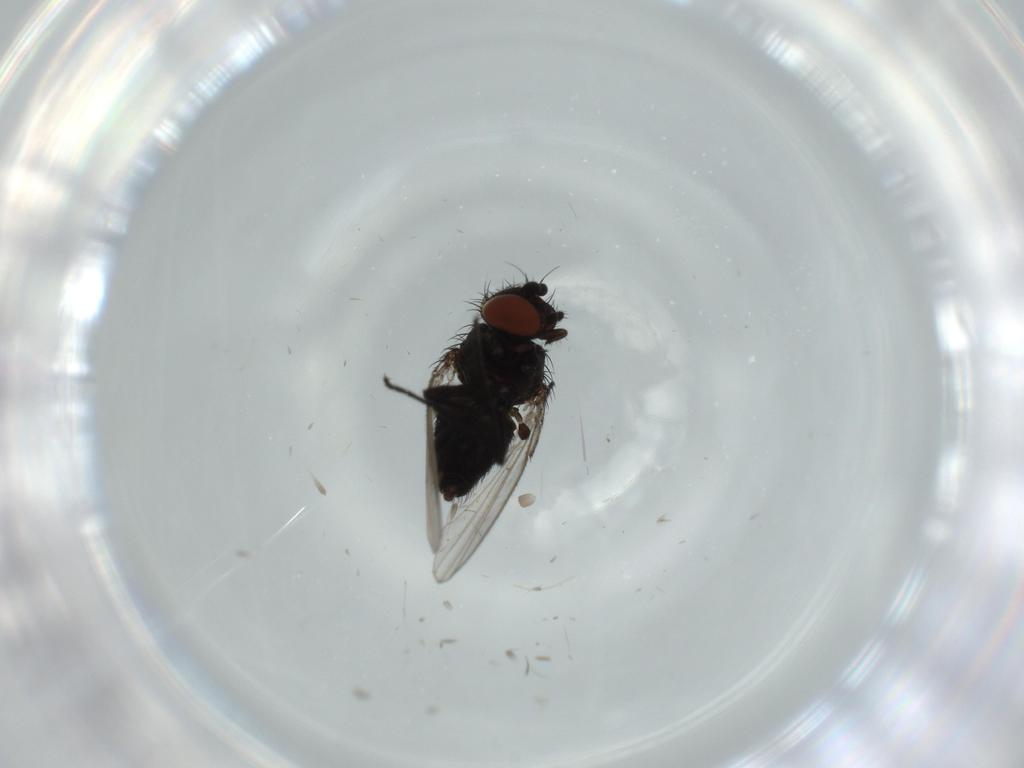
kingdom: Animalia
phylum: Arthropoda
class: Insecta
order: Diptera
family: Milichiidae
